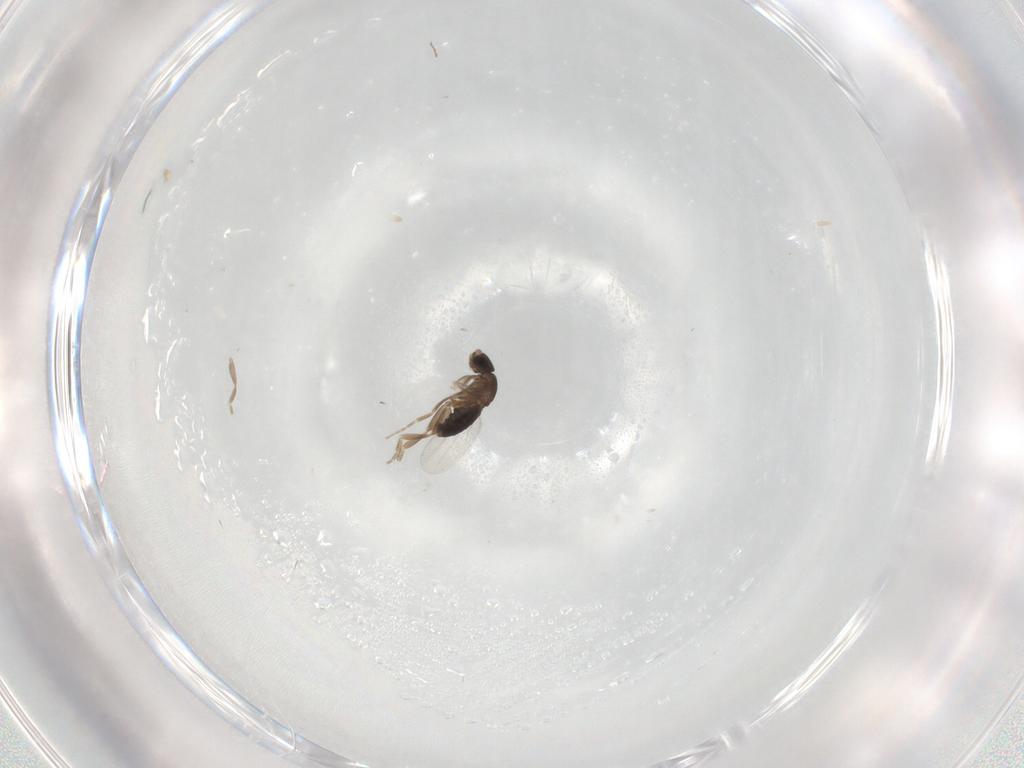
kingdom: Animalia
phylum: Arthropoda
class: Insecta
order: Diptera
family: Phoridae
